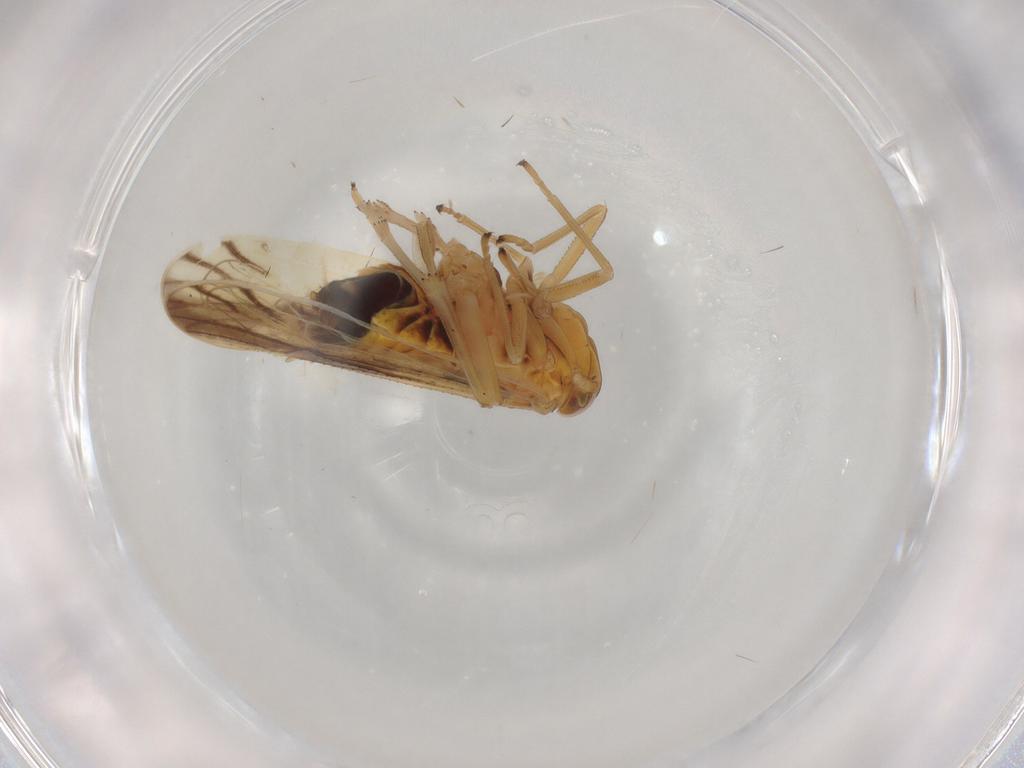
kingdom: Animalia
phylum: Arthropoda
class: Insecta
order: Hemiptera
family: Delphacidae
